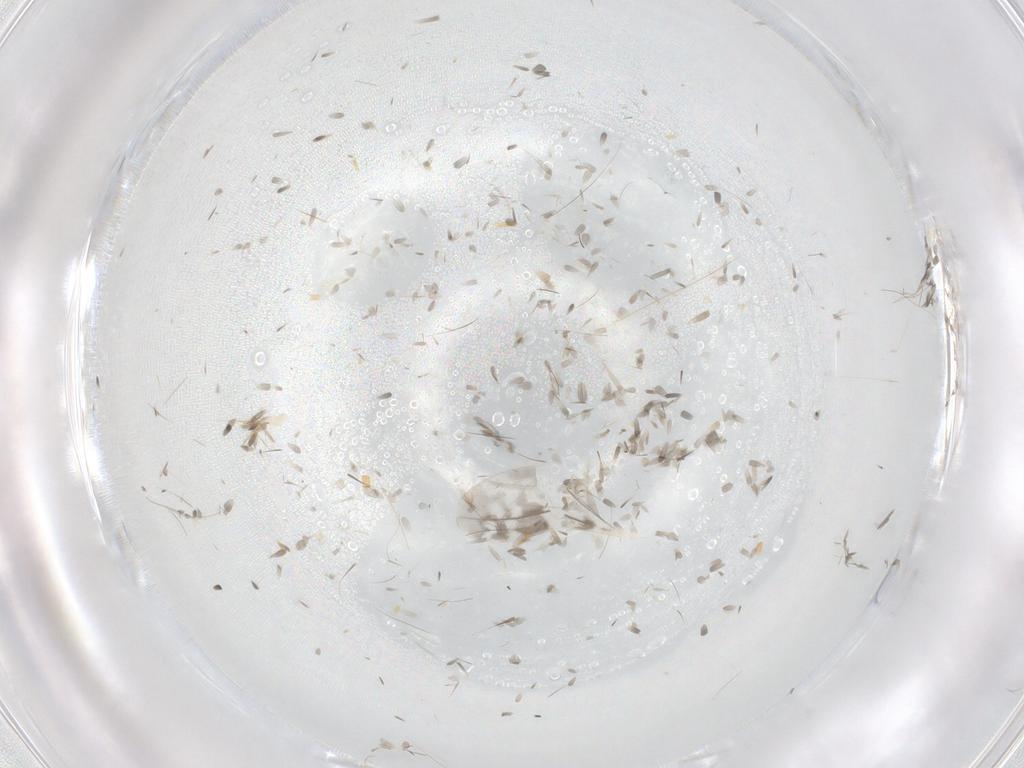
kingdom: Animalia
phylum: Arthropoda
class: Insecta
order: Diptera
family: Cecidomyiidae
